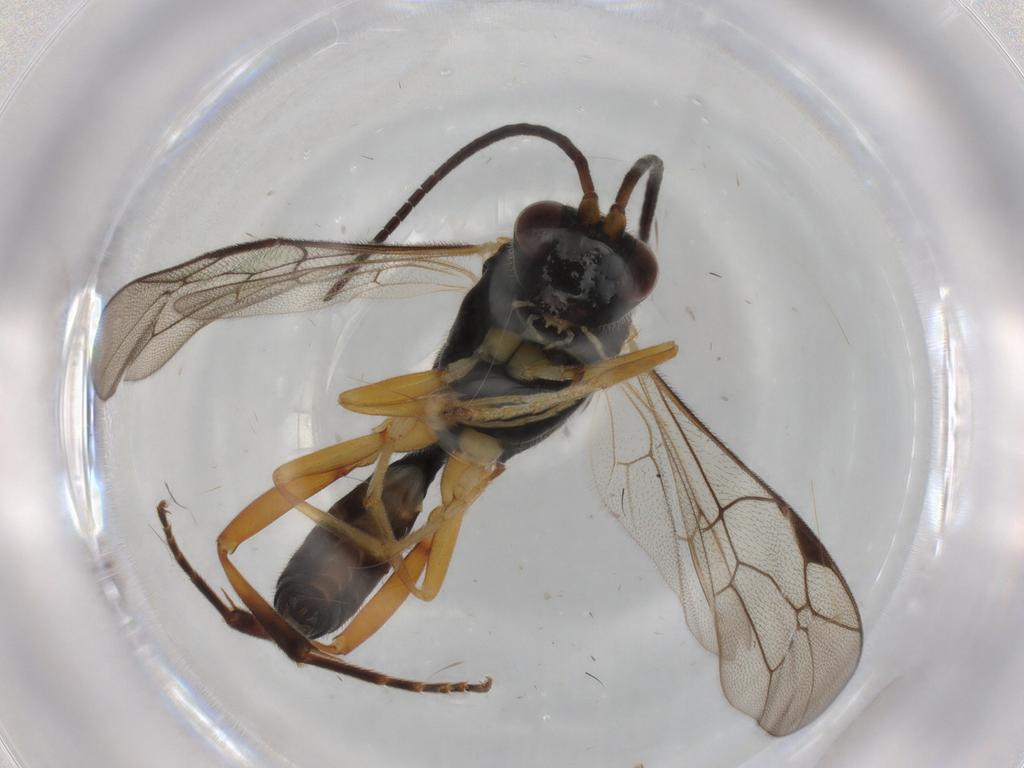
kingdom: Animalia
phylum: Arthropoda
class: Insecta
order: Hymenoptera
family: Ichneumonidae
